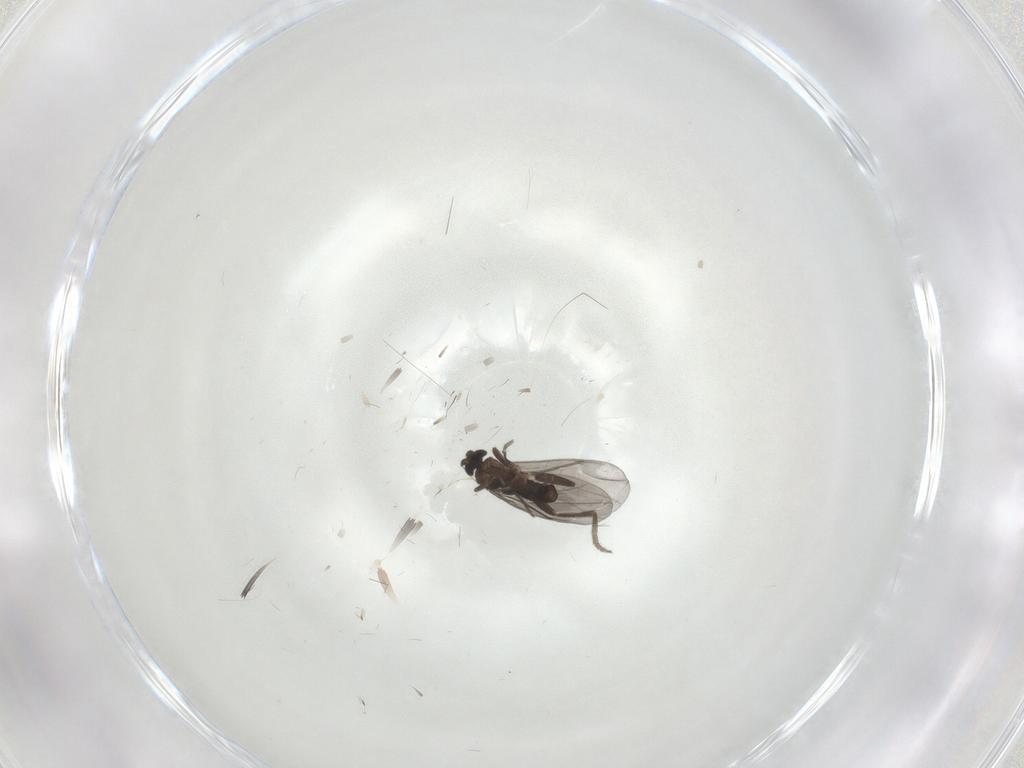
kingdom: Animalia
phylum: Arthropoda
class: Insecta
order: Diptera
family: Phoridae
